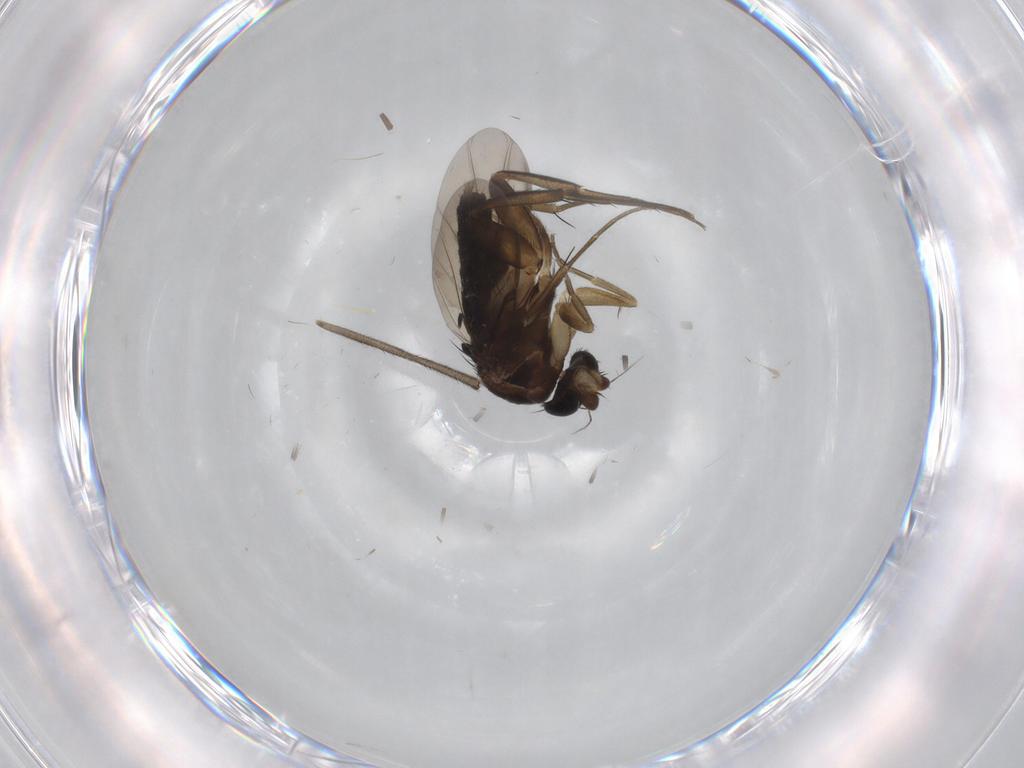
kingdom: Animalia
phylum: Arthropoda
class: Insecta
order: Diptera
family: Phoridae
